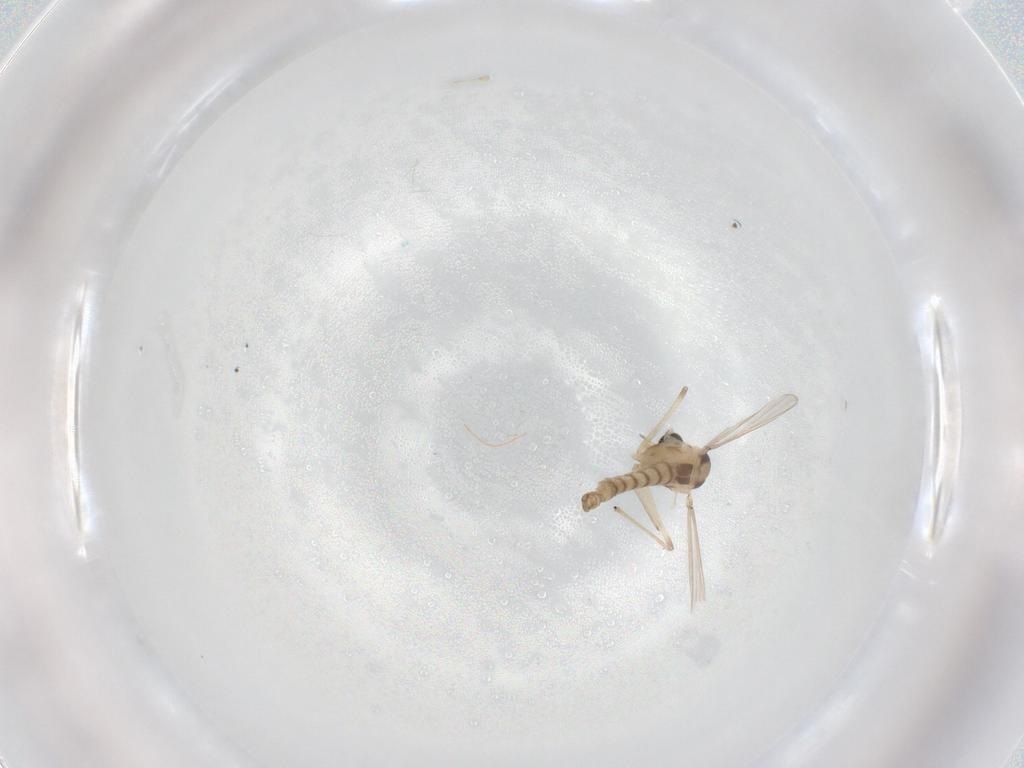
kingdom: Animalia
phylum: Arthropoda
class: Insecta
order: Diptera
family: Chironomidae
